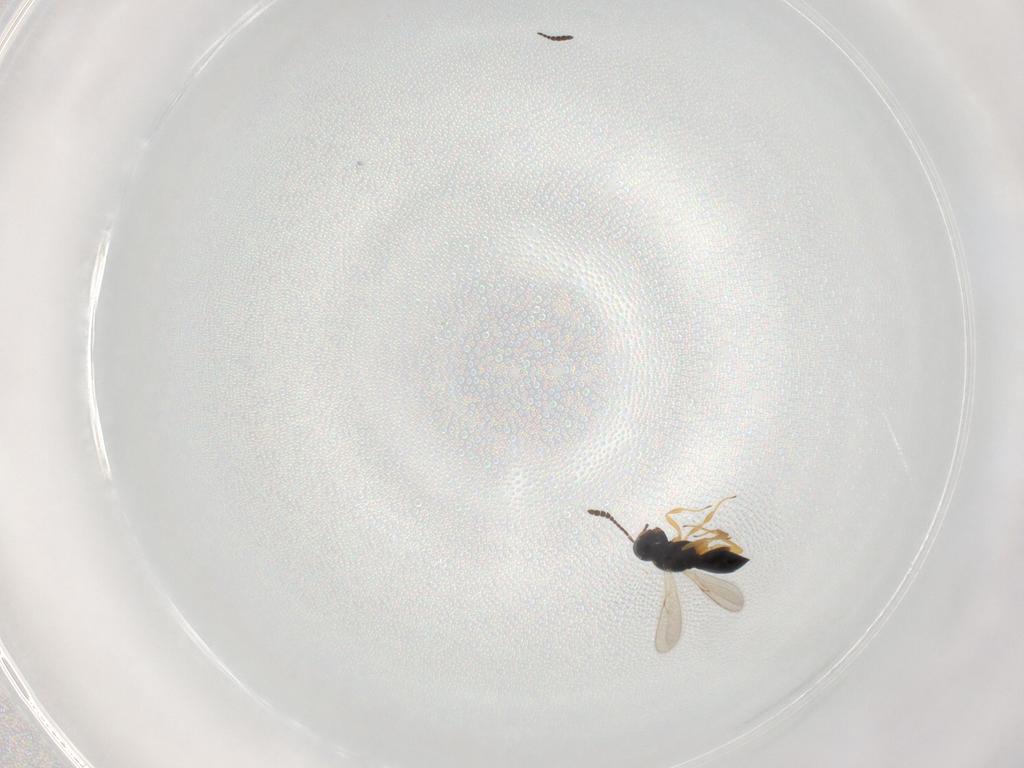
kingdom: Animalia
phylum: Arthropoda
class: Insecta
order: Hymenoptera
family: Scelionidae
